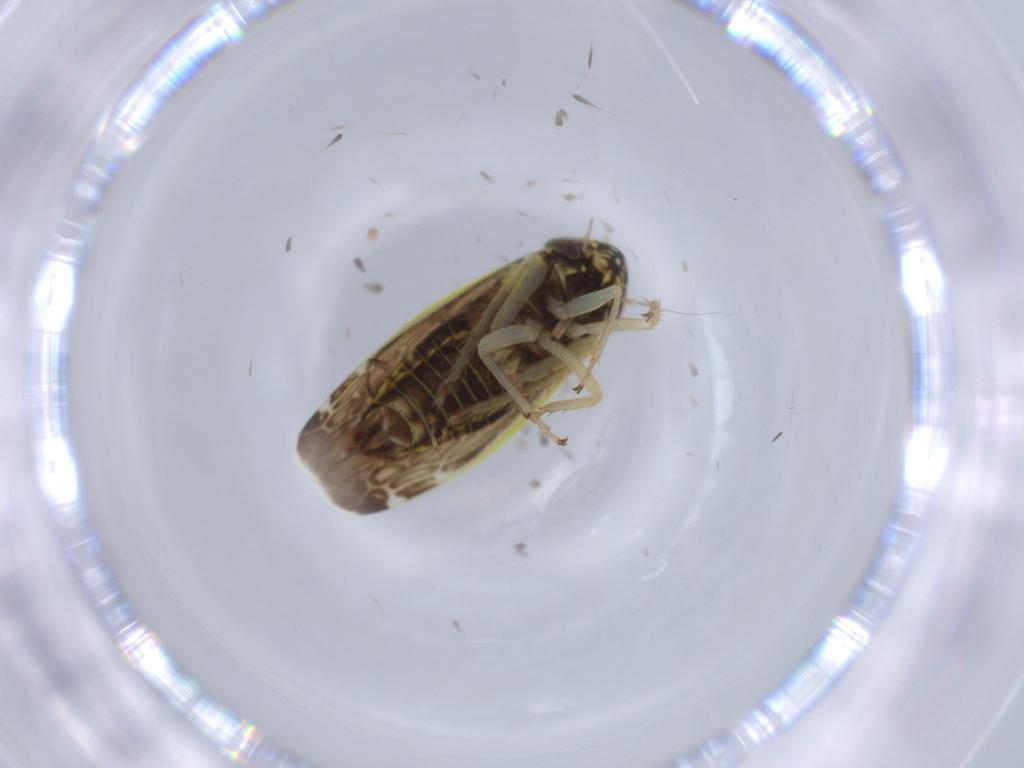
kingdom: Animalia
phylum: Arthropoda
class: Insecta
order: Hemiptera
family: Cicadellidae
